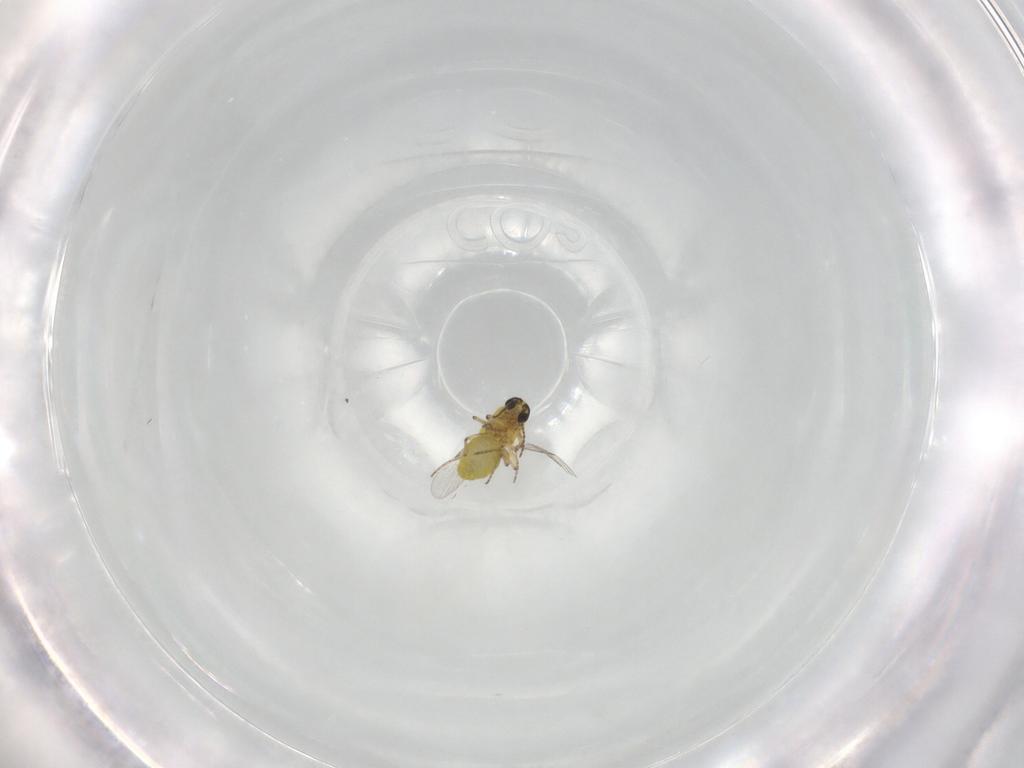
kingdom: Animalia
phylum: Arthropoda
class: Insecta
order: Diptera
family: Ceratopogonidae
